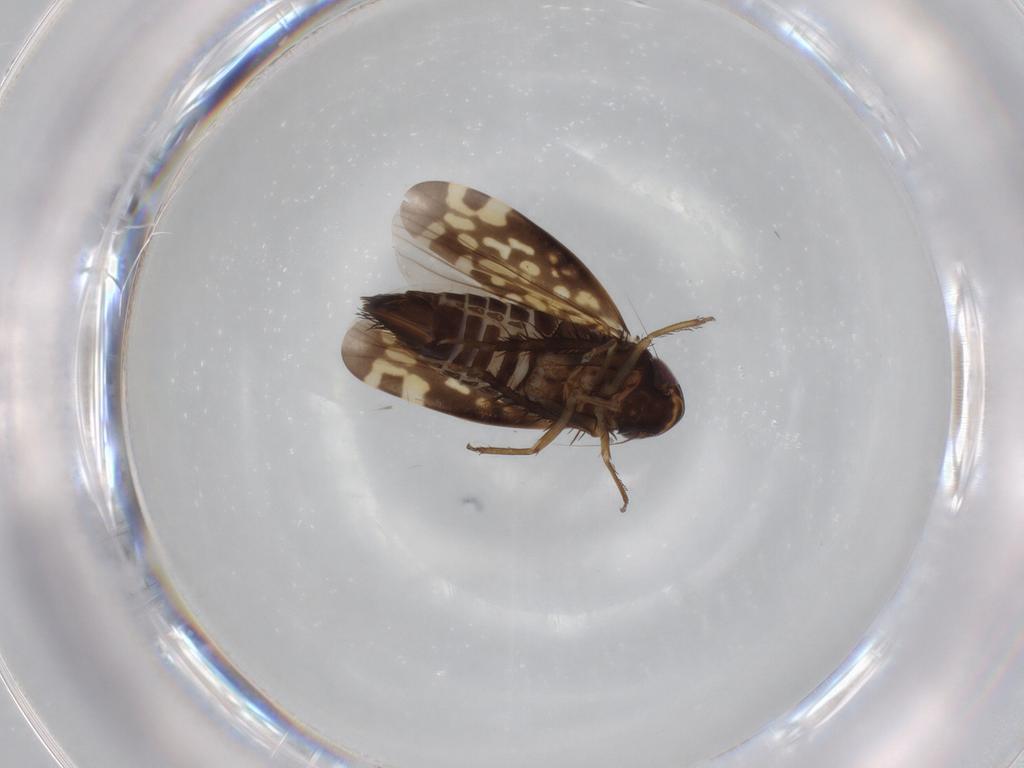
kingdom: Animalia
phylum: Arthropoda
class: Insecta
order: Hemiptera
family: Cicadellidae
